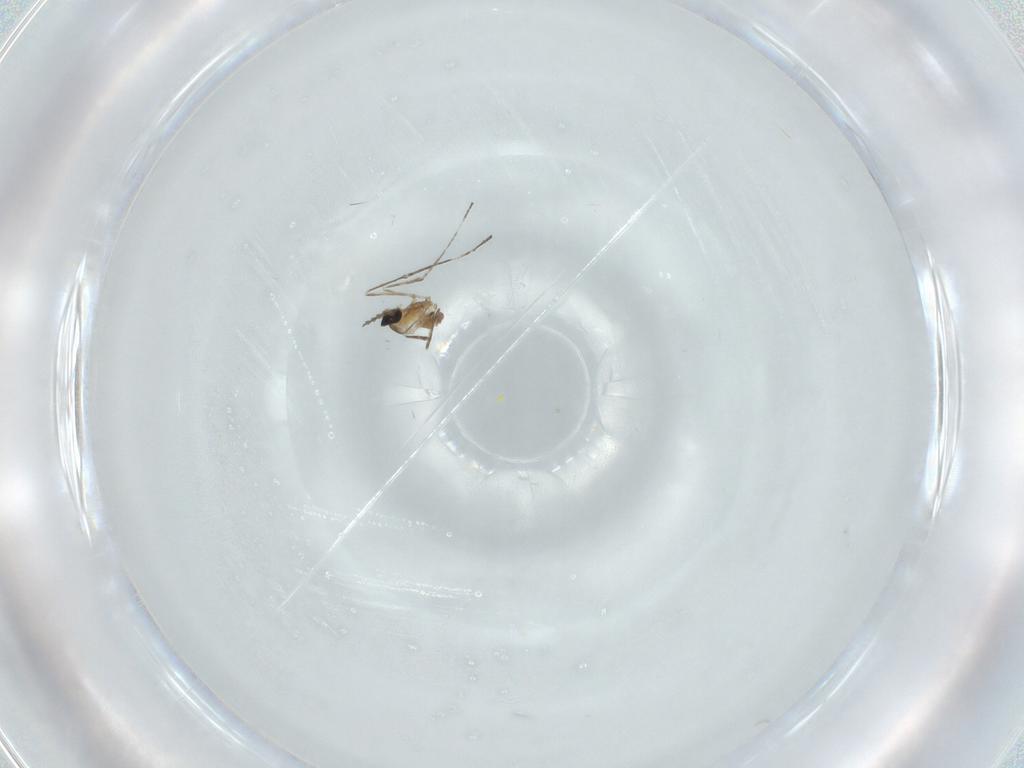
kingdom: Animalia
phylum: Arthropoda
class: Insecta
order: Diptera
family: Cecidomyiidae
